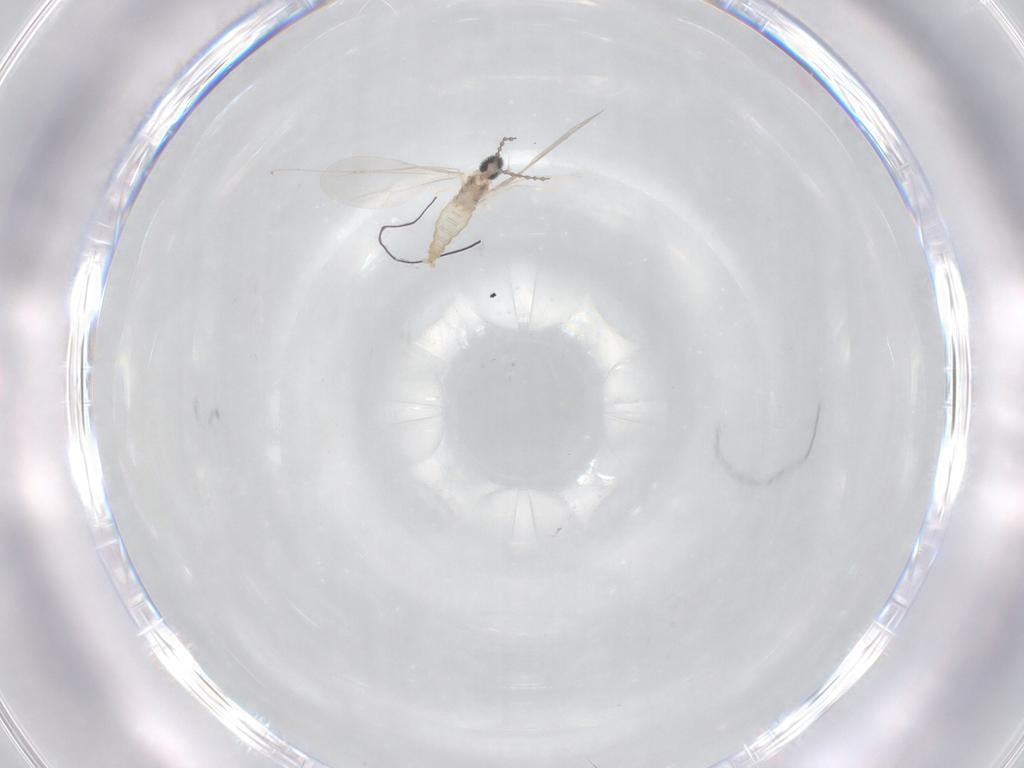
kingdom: Animalia
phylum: Arthropoda
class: Insecta
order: Diptera
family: Cecidomyiidae
